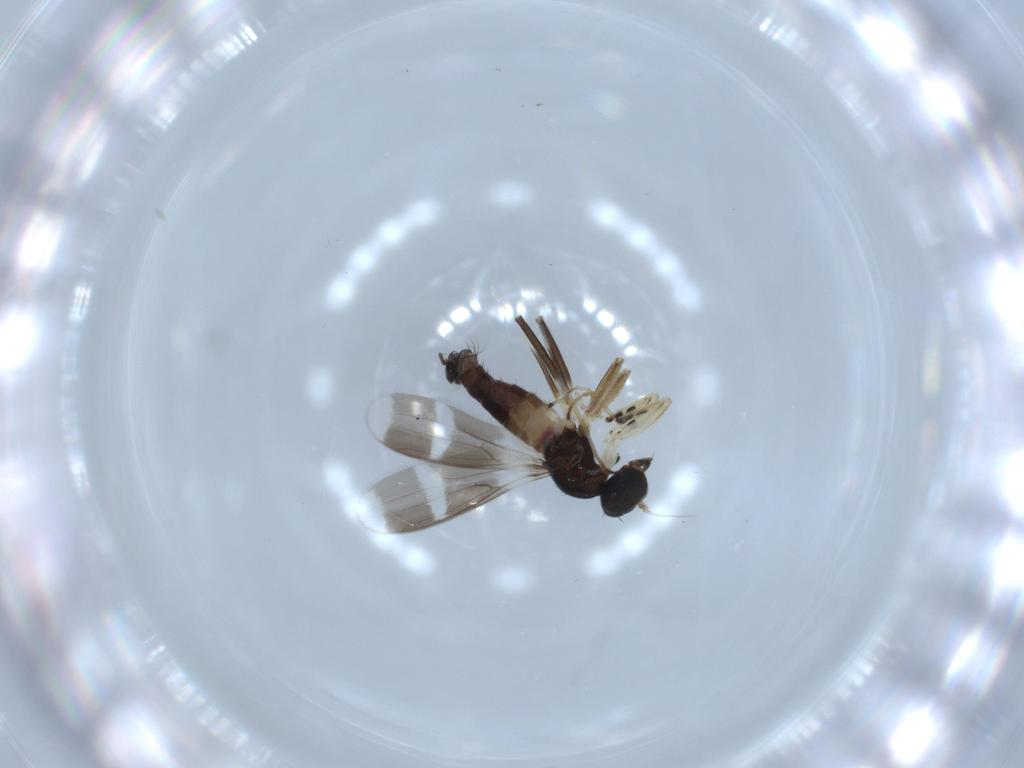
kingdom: Animalia
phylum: Arthropoda
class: Insecta
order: Diptera
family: Hybotidae
